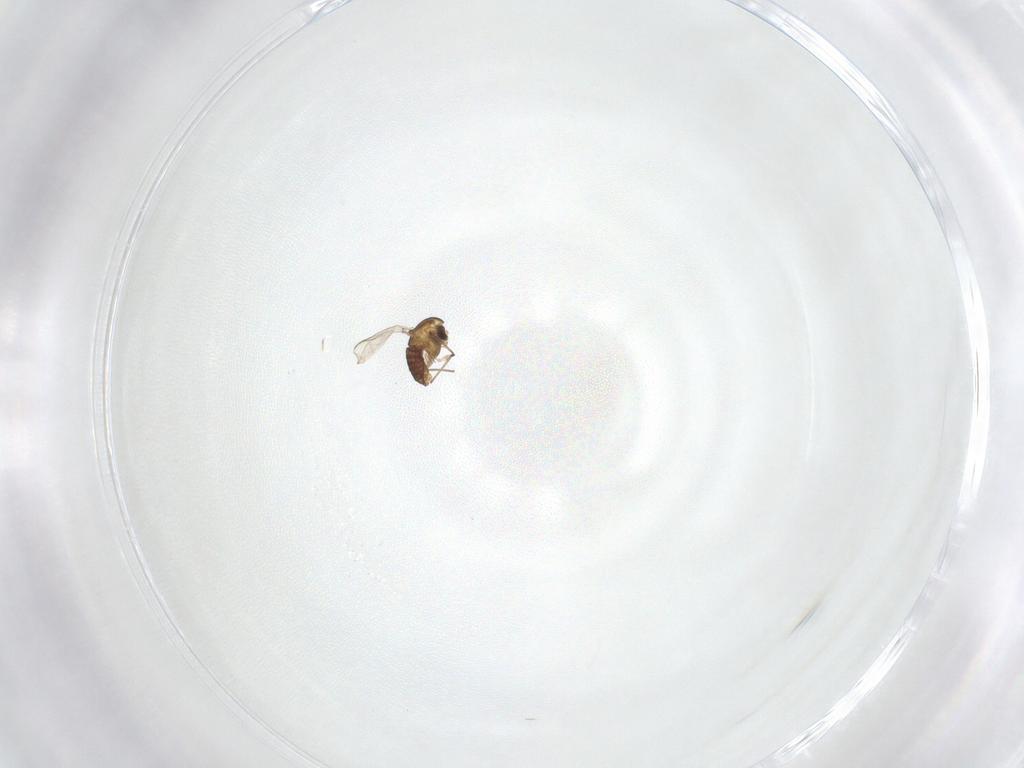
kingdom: Animalia
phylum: Arthropoda
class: Insecta
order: Diptera
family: Chironomidae
